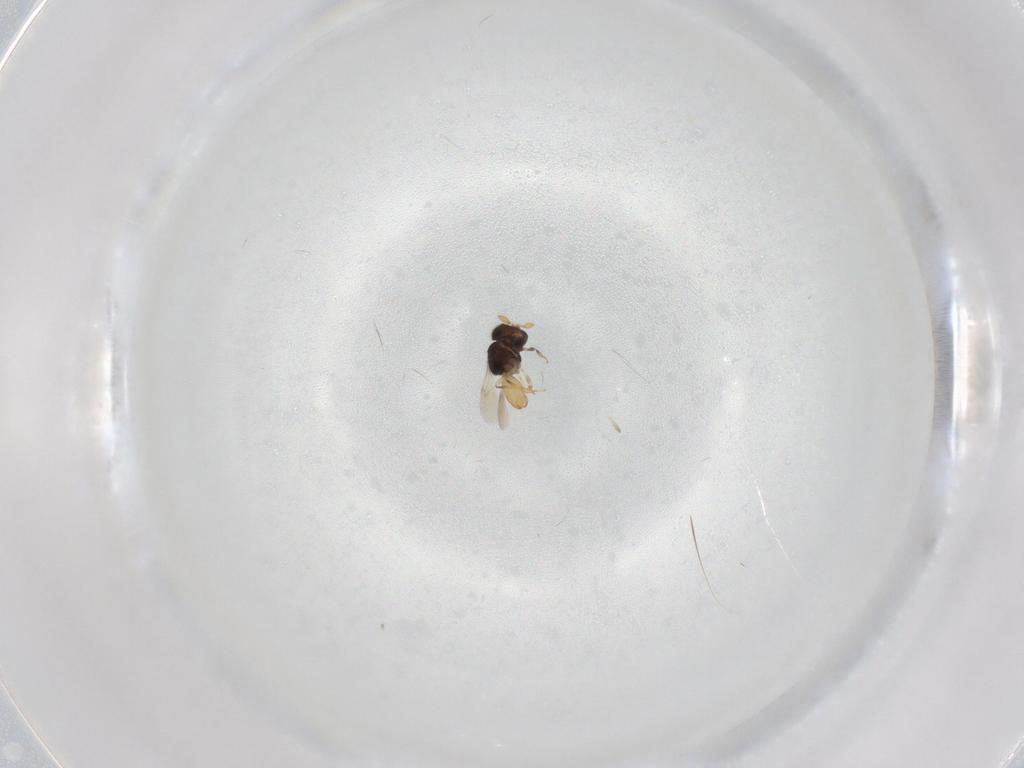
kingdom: Animalia
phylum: Arthropoda
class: Insecta
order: Hymenoptera
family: Scelionidae
